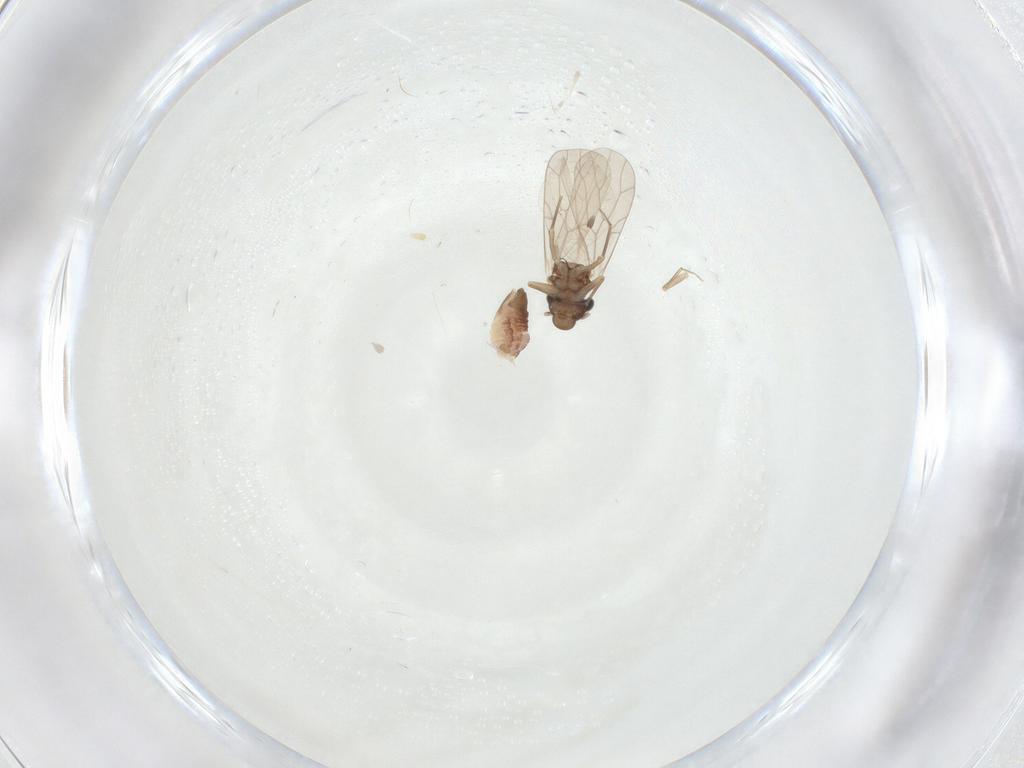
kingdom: Animalia
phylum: Arthropoda
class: Insecta
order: Psocodea
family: Lepidopsocidae
